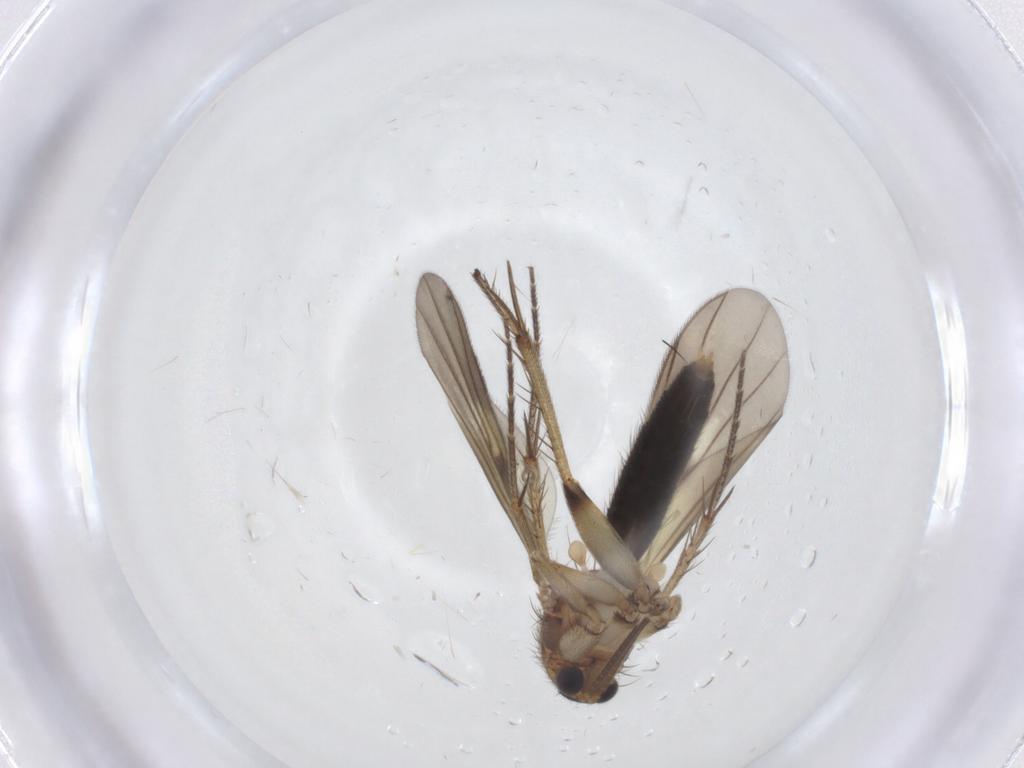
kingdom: Animalia
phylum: Arthropoda
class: Insecta
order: Diptera
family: Mycetophilidae
